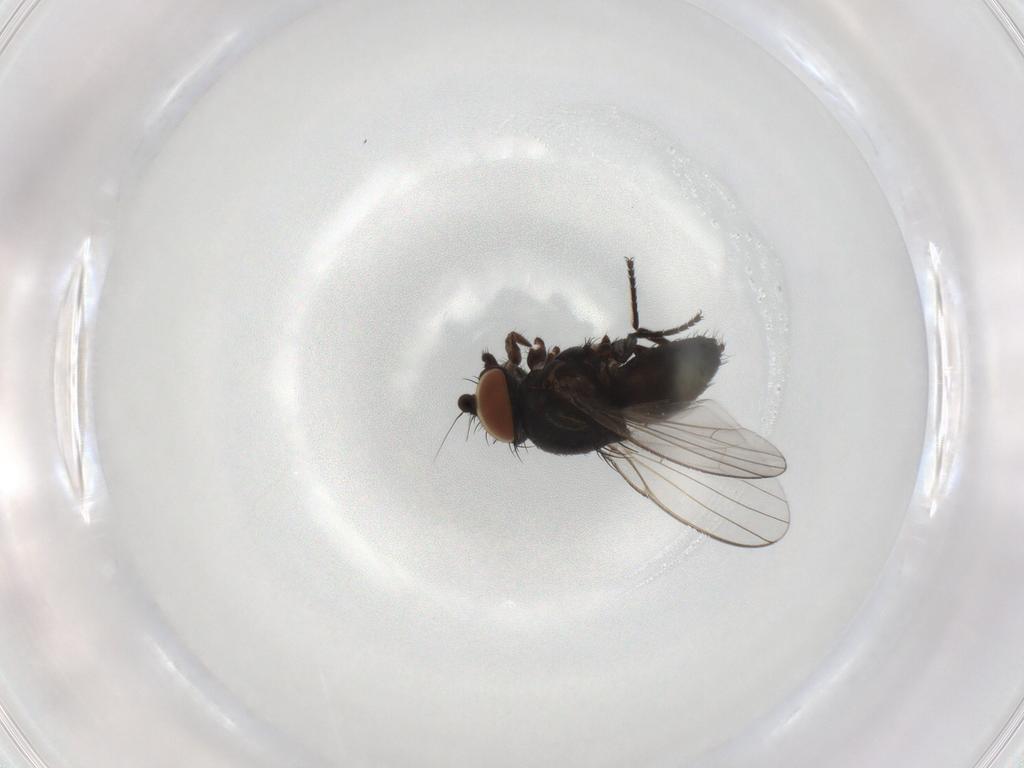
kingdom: Animalia
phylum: Arthropoda
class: Insecta
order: Diptera
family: Milichiidae
